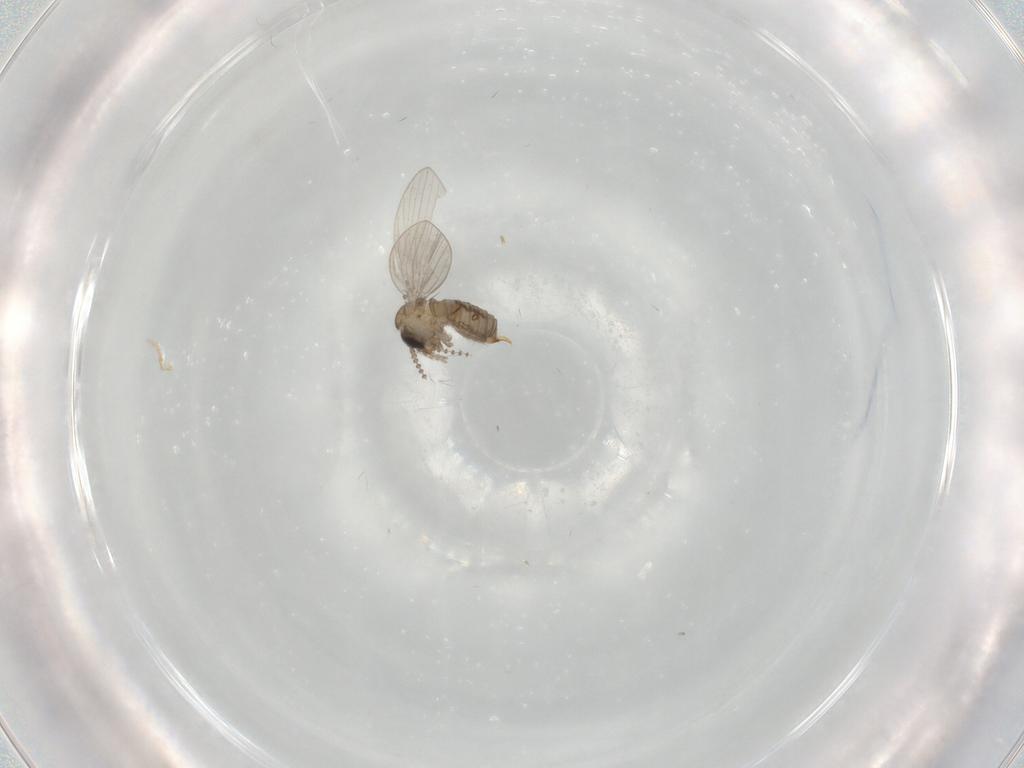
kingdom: Animalia
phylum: Arthropoda
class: Insecta
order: Diptera
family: Psychodidae
